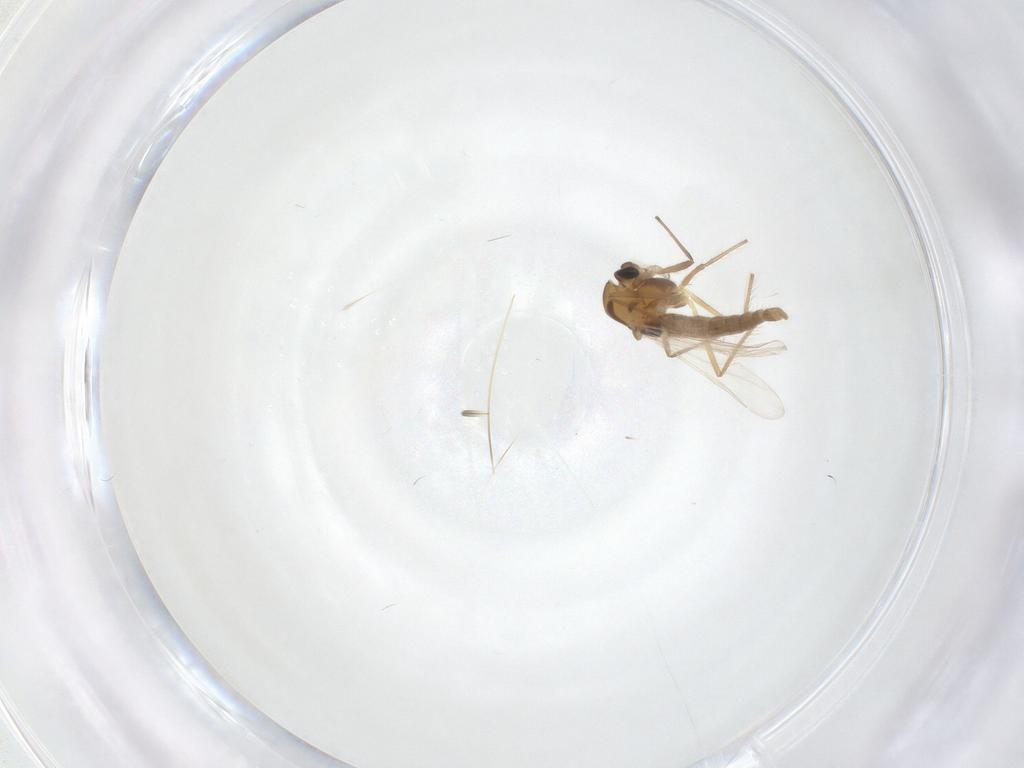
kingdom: Animalia
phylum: Arthropoda
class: Insecta
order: Diptera
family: Chironomidae
